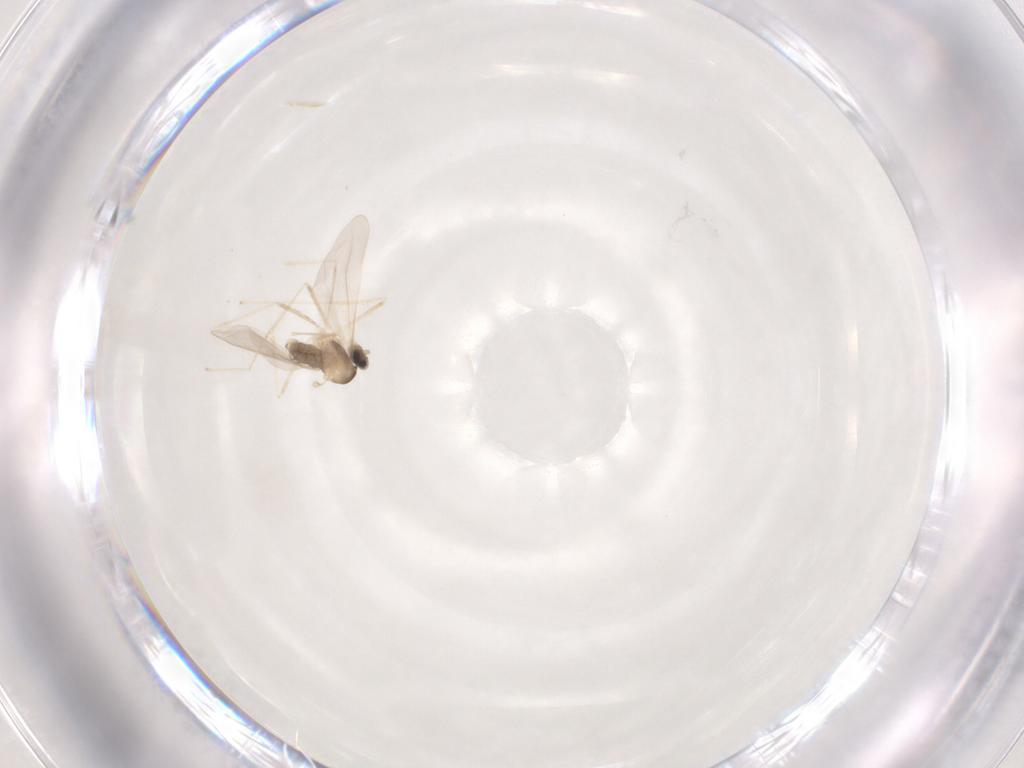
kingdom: Animalia
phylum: Arthropoda
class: Insecta
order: Diptera
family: Cecidomyiidae
